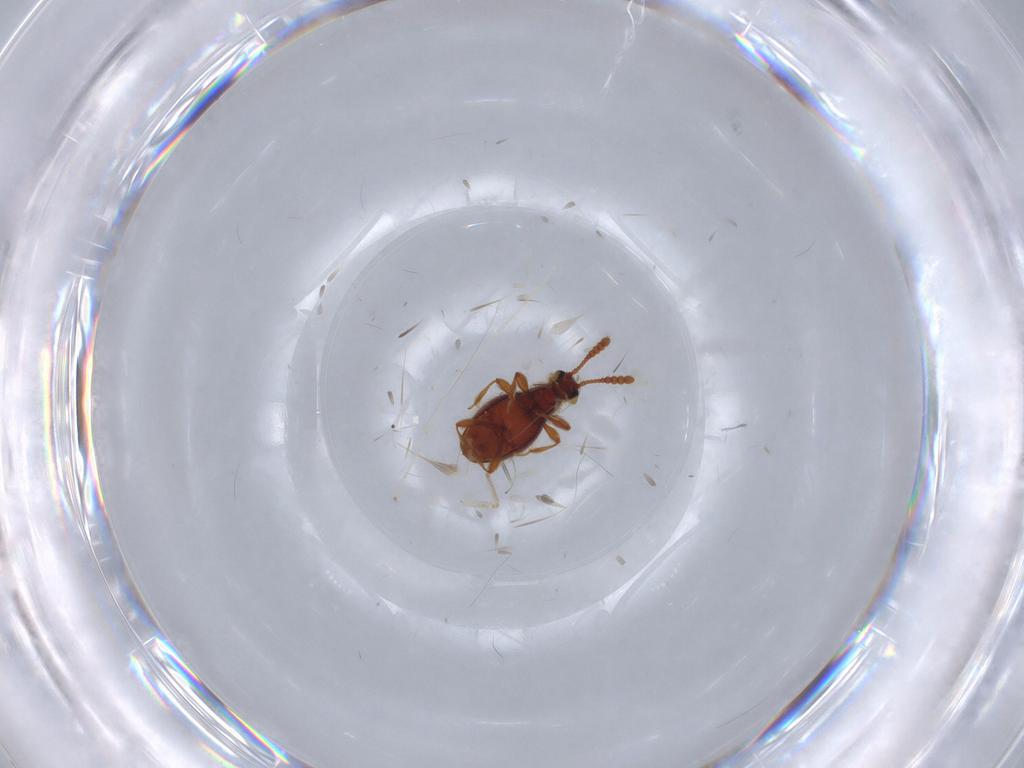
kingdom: Animalia
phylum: Arthropoda
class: Insecta
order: Coleoptera
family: Staphylinidae
